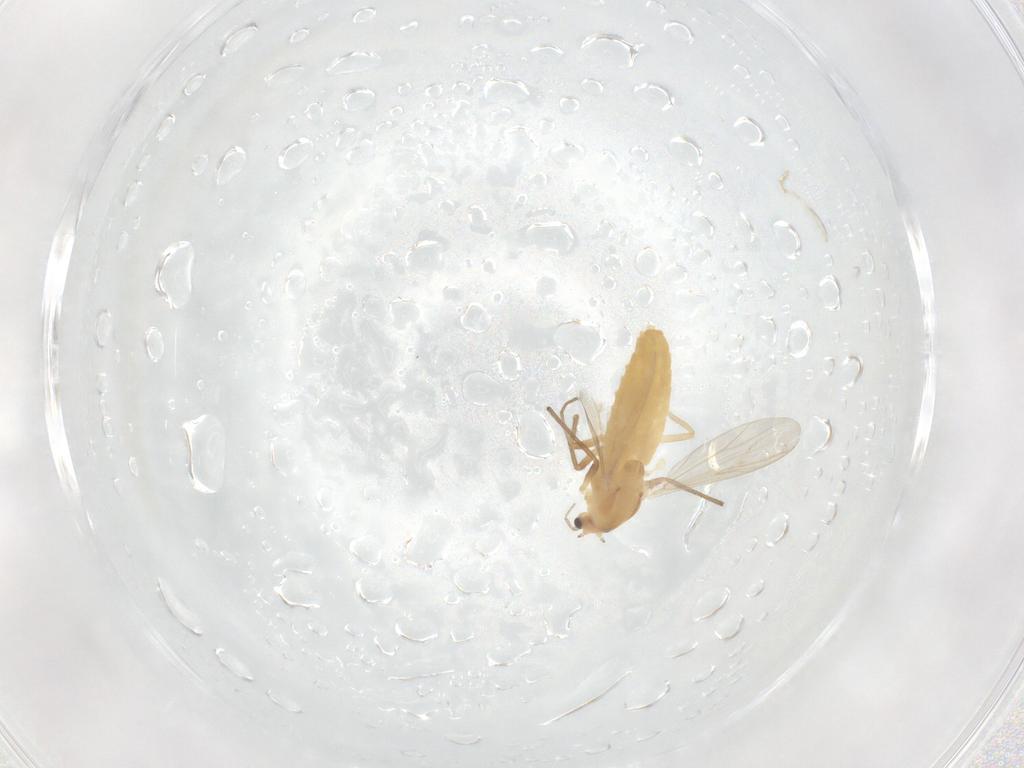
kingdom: Animalia
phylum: Arthropoda
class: Insecta
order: Diptera
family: Chironomidae
